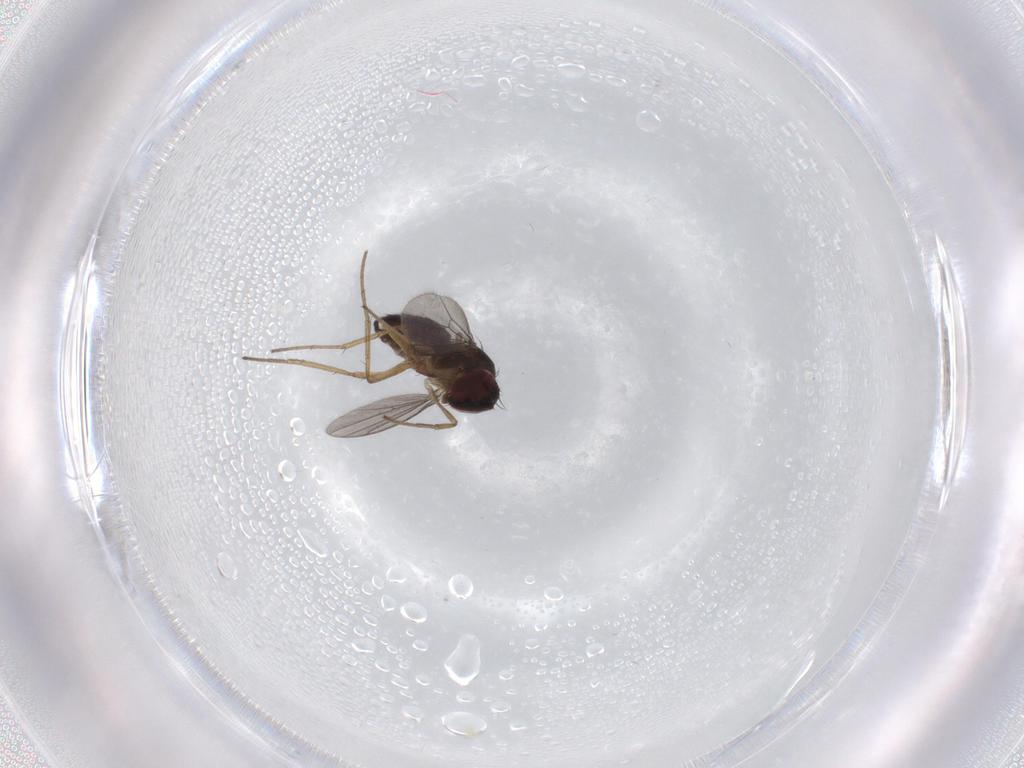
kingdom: Animalia
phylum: Arthropoda
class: Insecta
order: Diptera
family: Dolichopodidae
